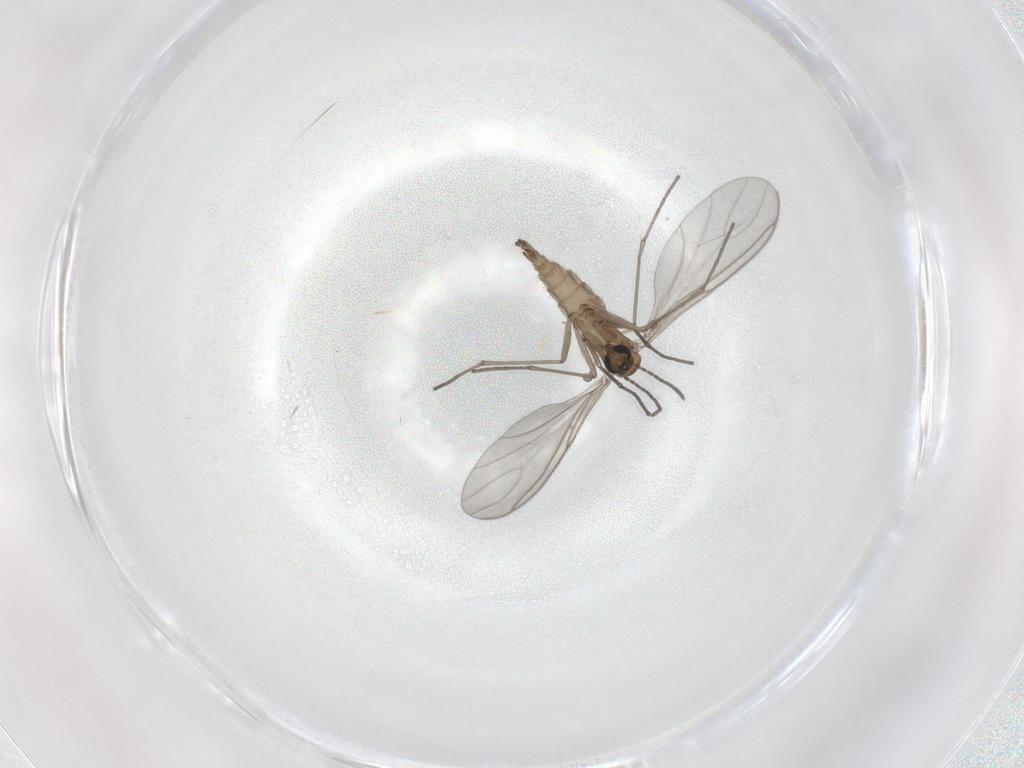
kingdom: Animalia
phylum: Arthropoda
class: Insecta
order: Diptera
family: Sciaridae
